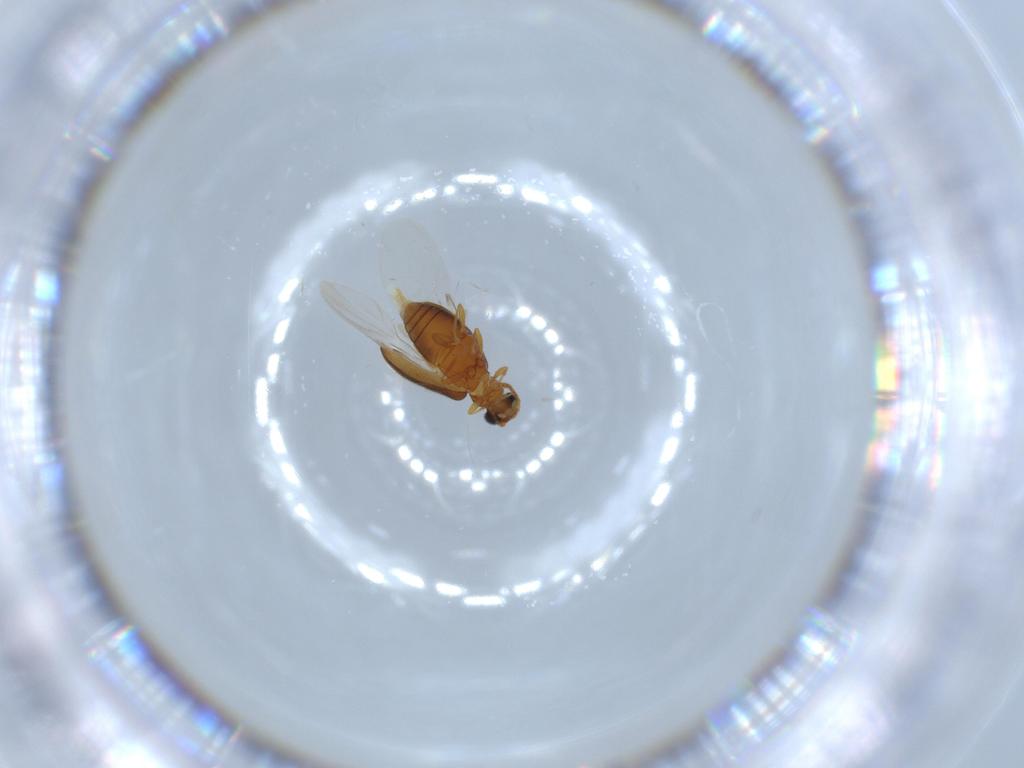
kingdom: Animalia
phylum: Arthropoda
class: Insecta
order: Coleoptera
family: Aderidae
